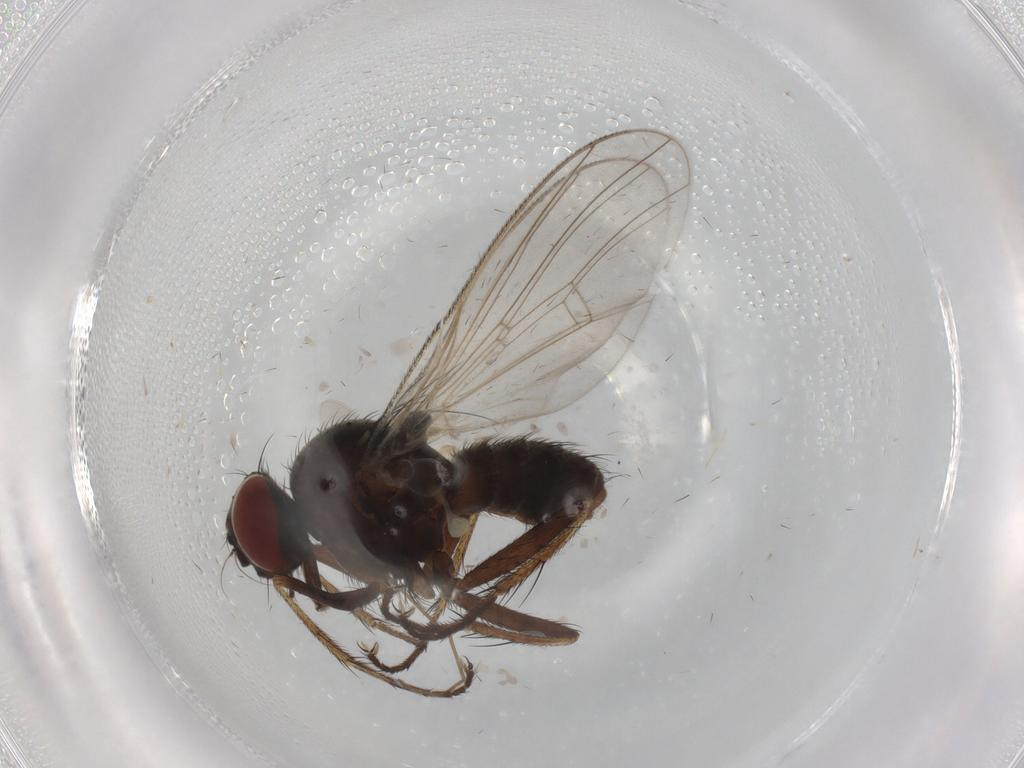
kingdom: Animalia
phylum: Arthropoda
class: Insecta
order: Diptera
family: Muscidae
